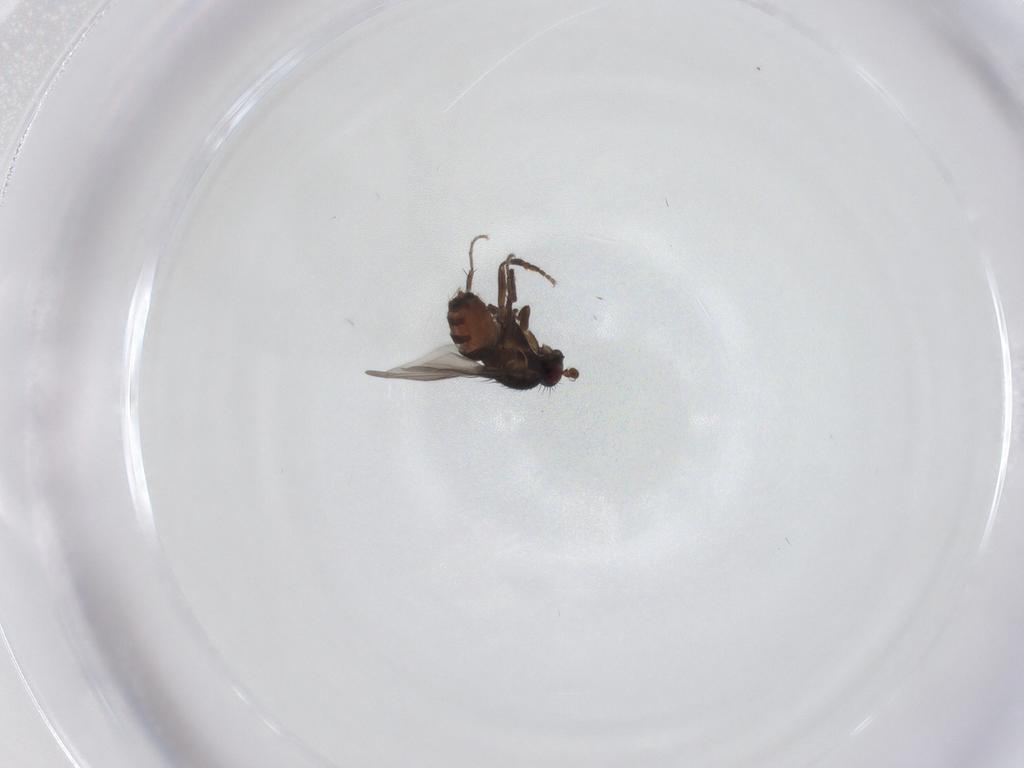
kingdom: Animalia
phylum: Arthropoda
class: Insecta
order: Diptera
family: Sphaeroceridae
